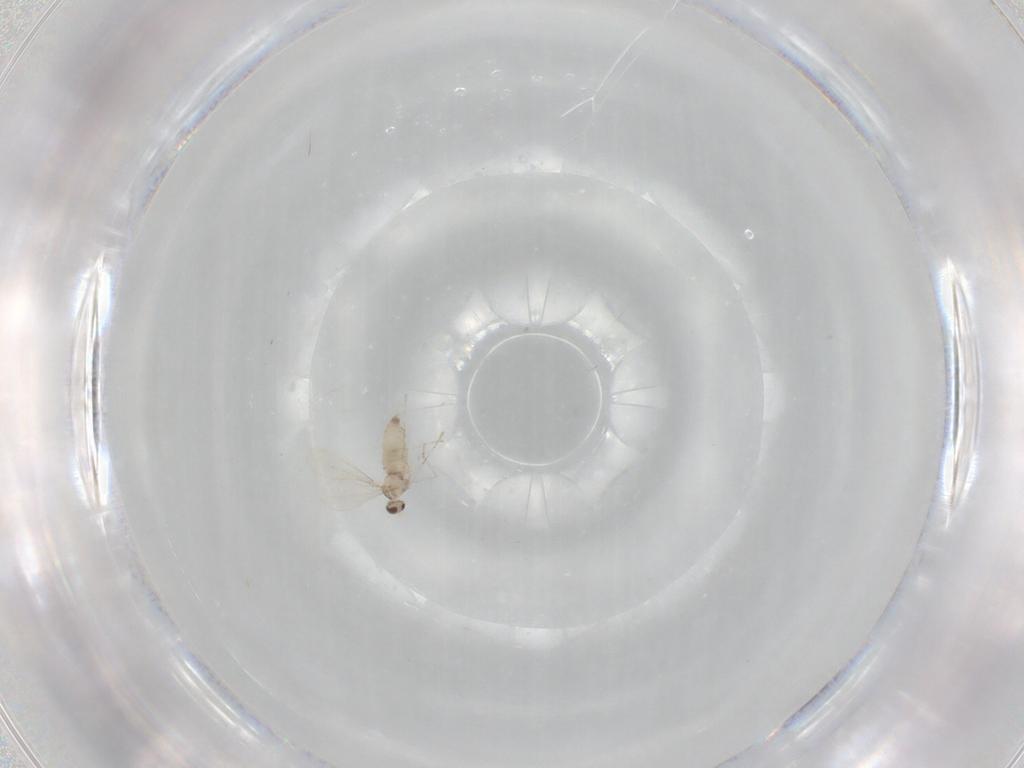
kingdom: Animalia
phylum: Arthropoda
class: Insecta
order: Diptera
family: Cecidomyiidae
